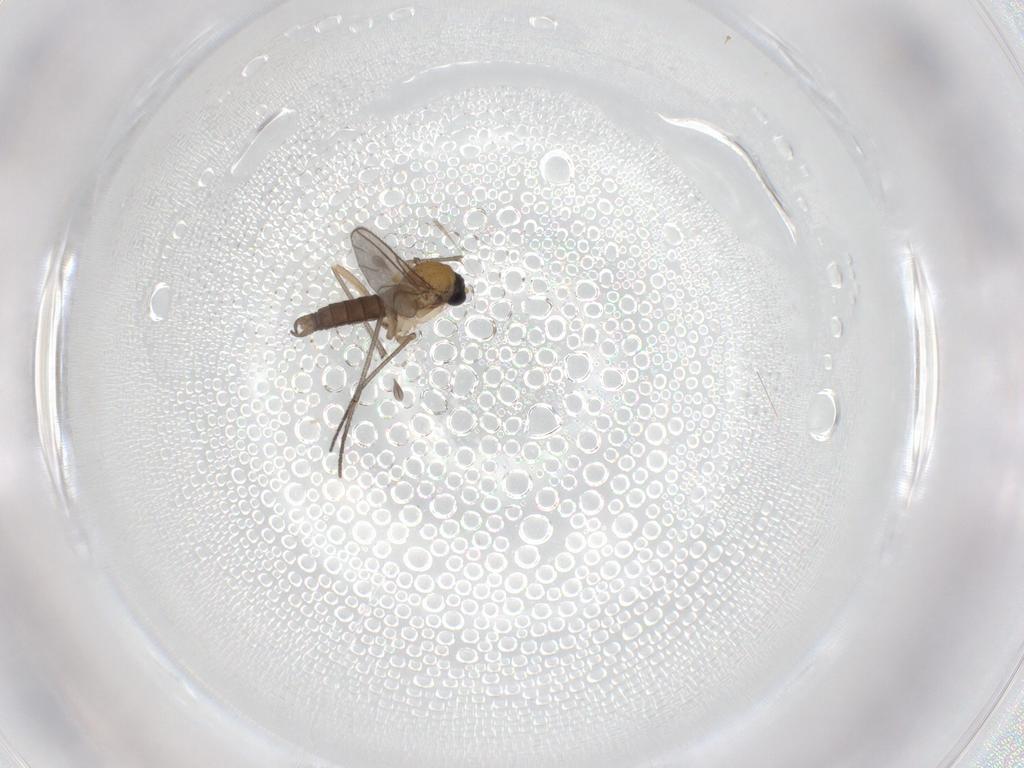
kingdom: Animalia
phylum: Arthropoda
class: Insecta
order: Diptera
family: Sciaridae
